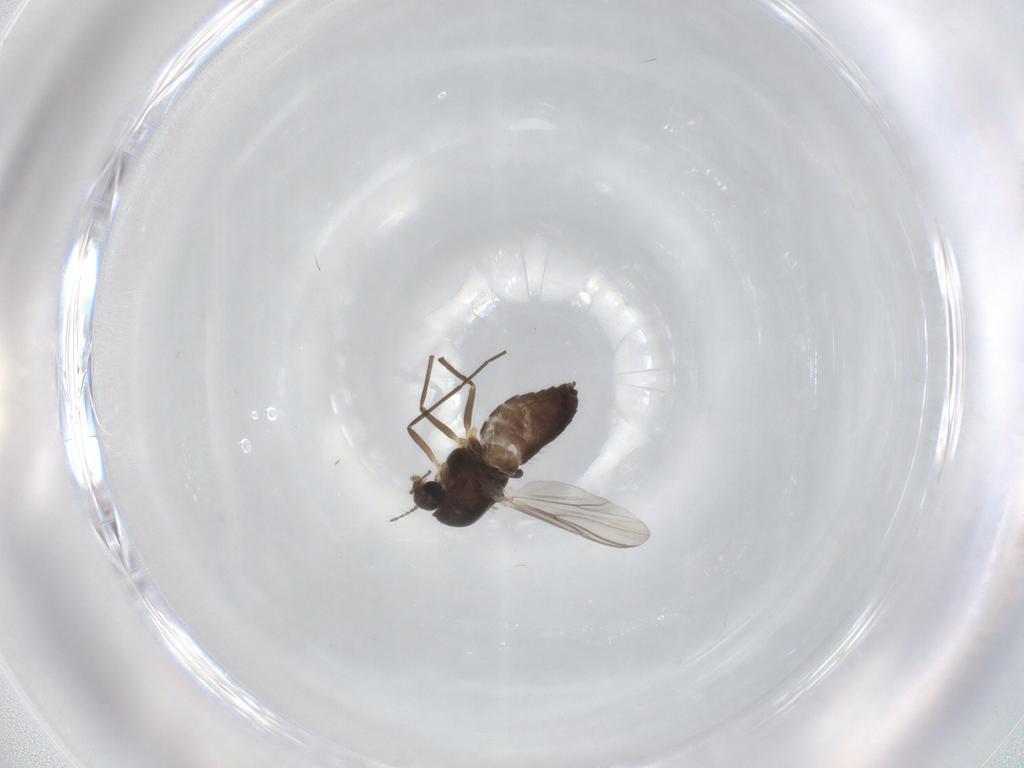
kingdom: Animalia
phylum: Arthropoda
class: Insecta
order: Diptera
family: Chironomidae
